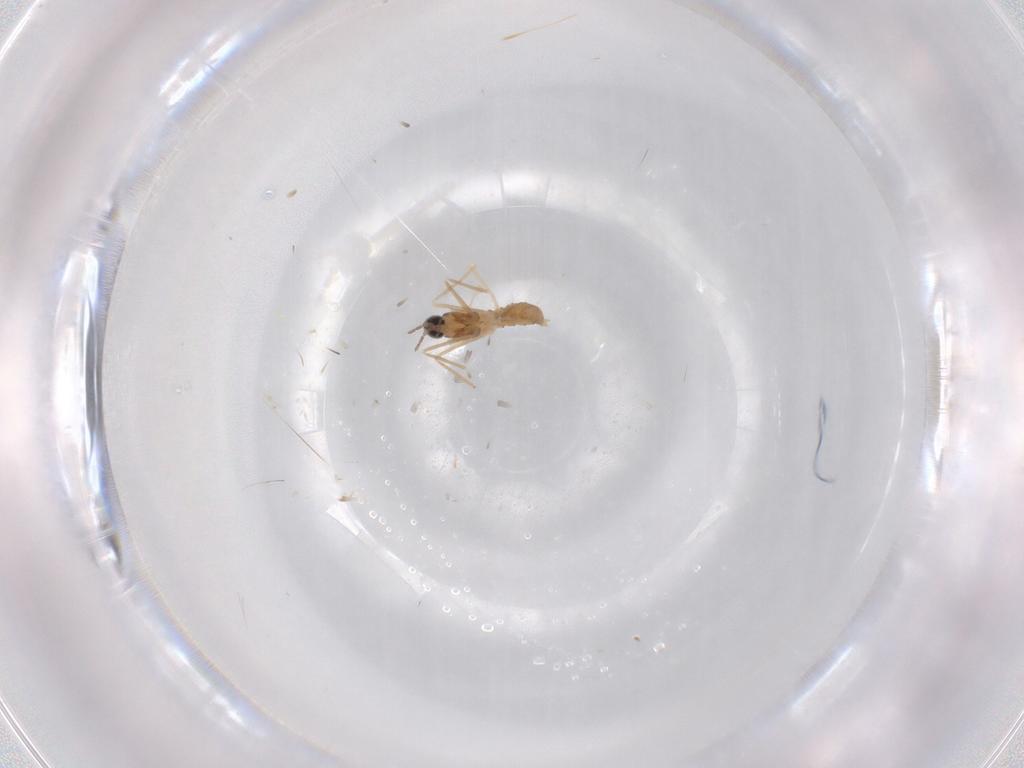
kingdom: Animalia
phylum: Arthropoda
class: Insecta
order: Diptera
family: Cecidomyiidae
